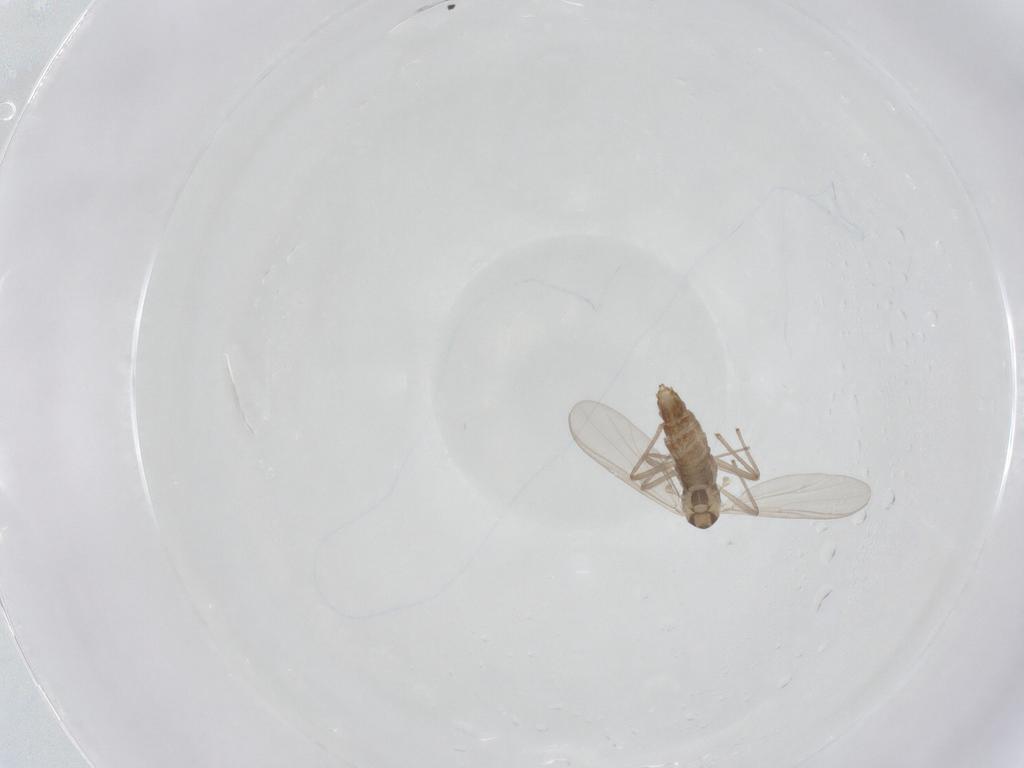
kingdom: Animalia
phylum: Arthropoda
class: Insecta
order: Diptera
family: Chironomidae
